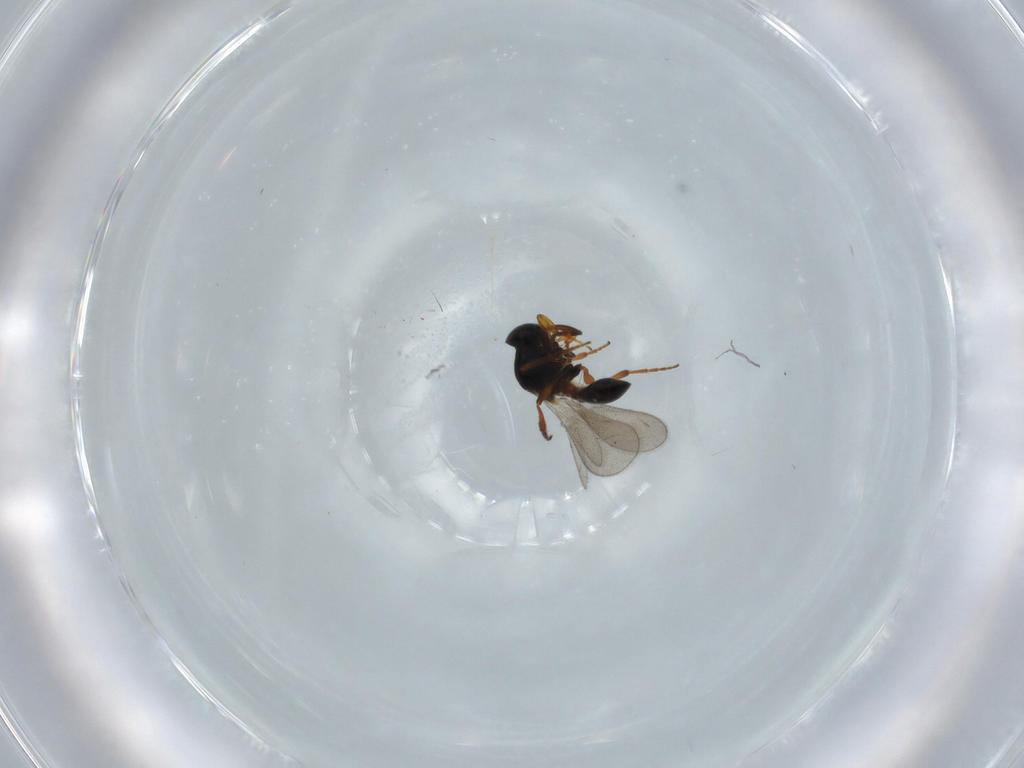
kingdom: Animalia
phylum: Arthropoda
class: Insecta
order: Hymenoptera
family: Platygastridae
